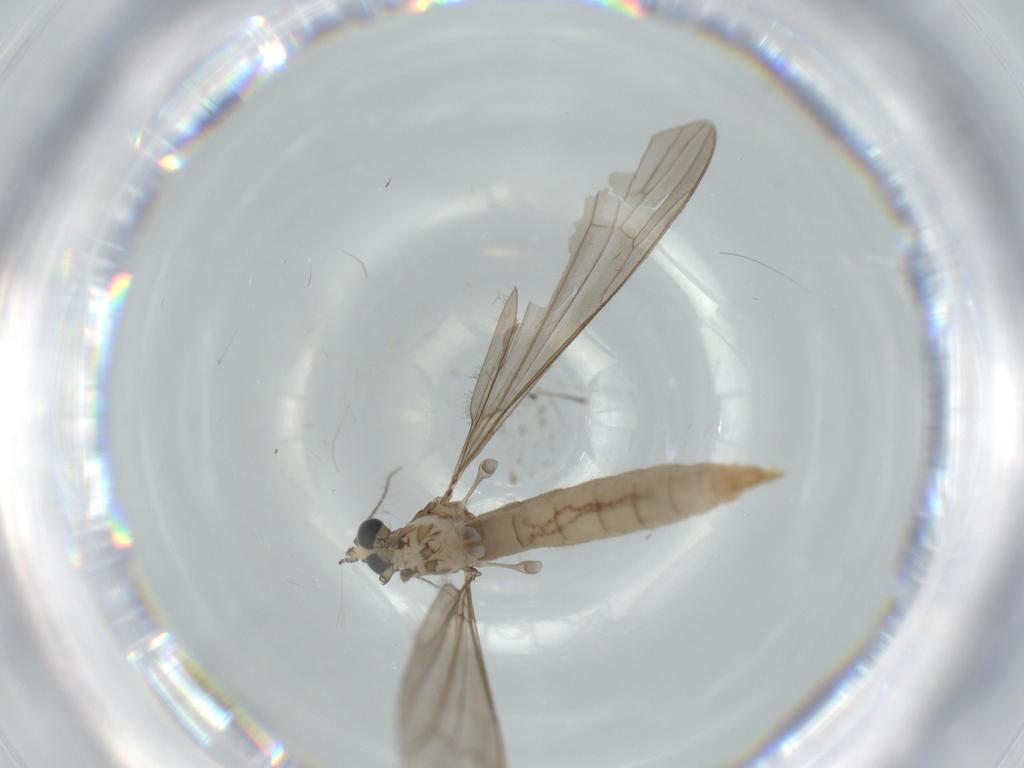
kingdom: Animalia
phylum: Arthropoda
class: Insecta
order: Diptera
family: Limoniidae
